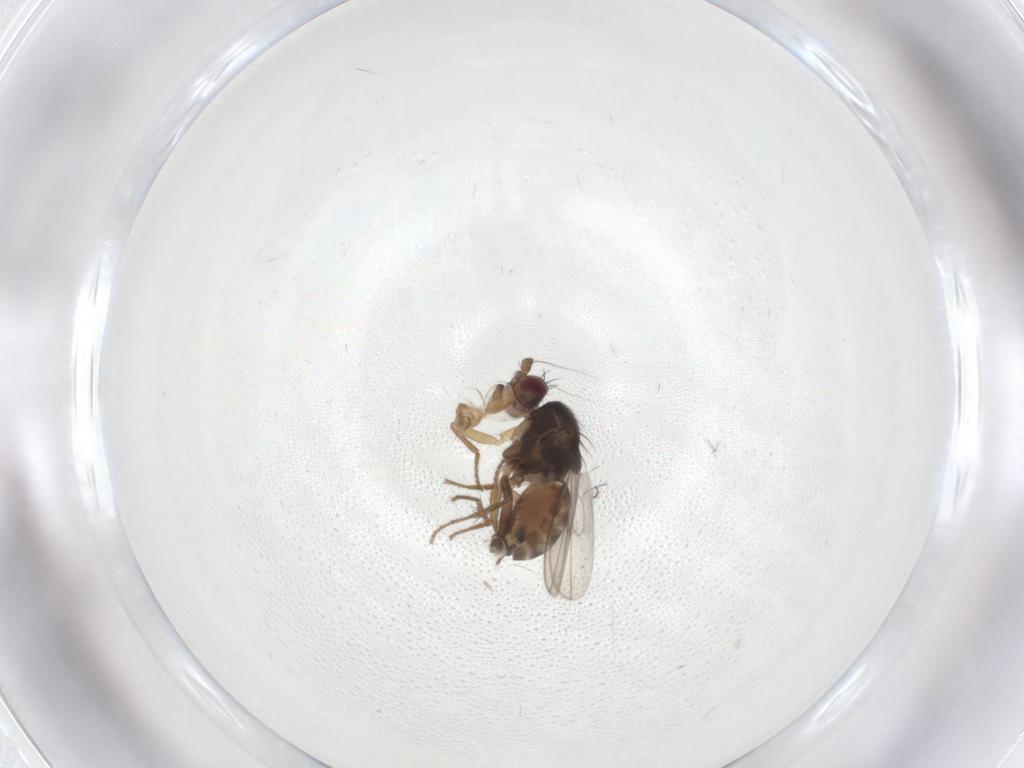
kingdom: Animalia
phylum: Arthropoda
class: Insecta
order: Diptera
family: Sphaeroceridae
